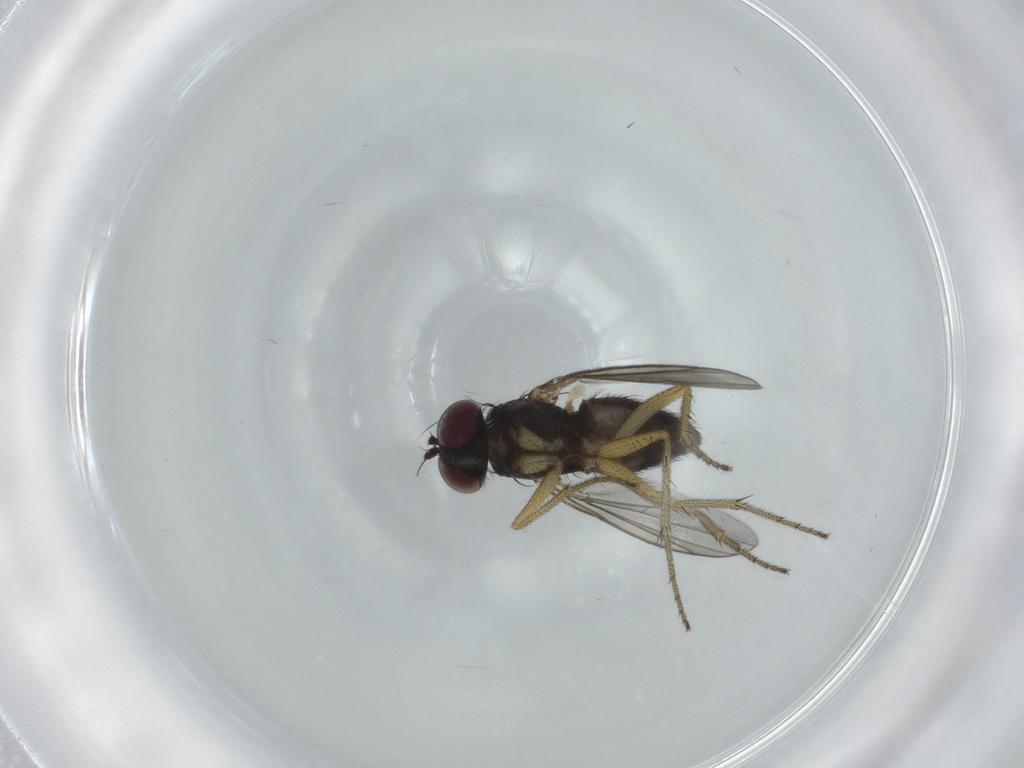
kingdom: Animalia
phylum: Arthropoda
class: Insecta
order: Diptera
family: Dolichopodidae
